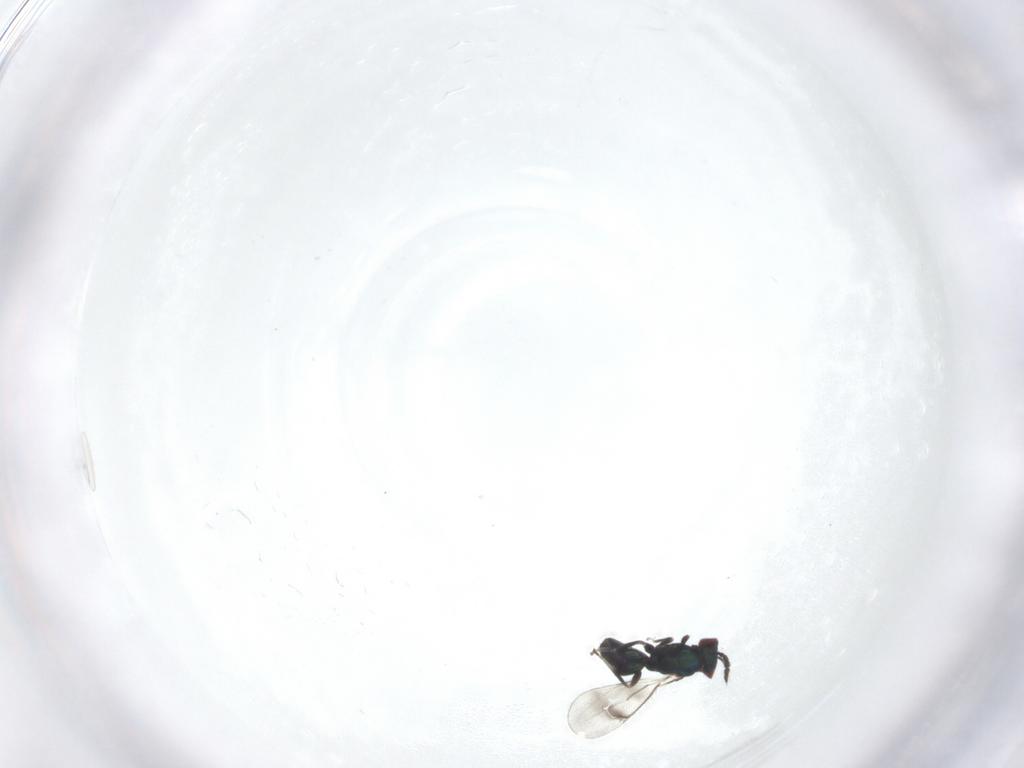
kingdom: Animalia
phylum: Arthropoda
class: Insecta
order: Hymenoptera
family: Eulophidae
